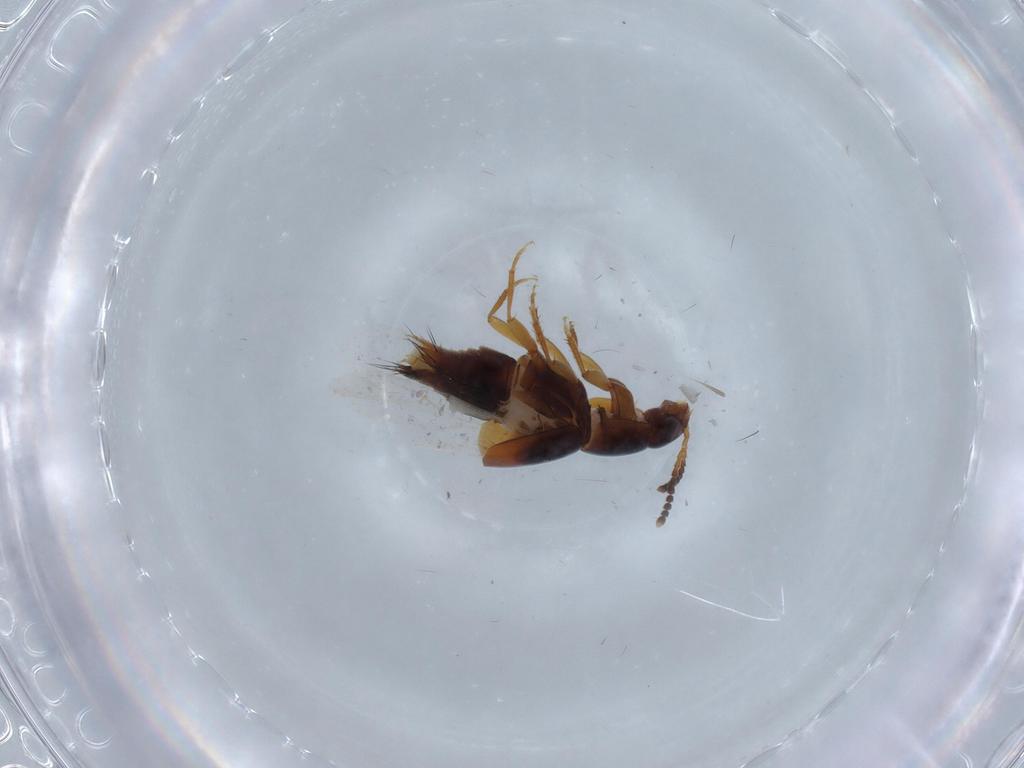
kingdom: Animalia
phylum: Arthropoda
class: Insecta
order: Coleoptera
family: Staphylinidae
